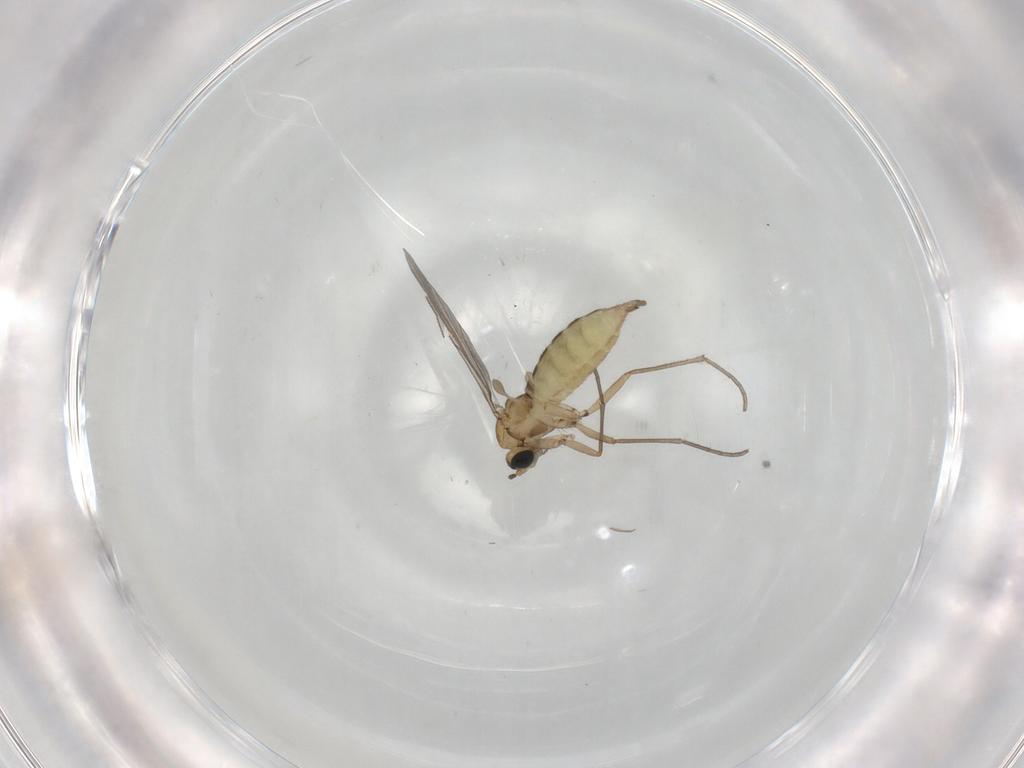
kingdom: Animalia
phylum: Arthropoda
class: Insecta
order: Diptera
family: Sciaridae
